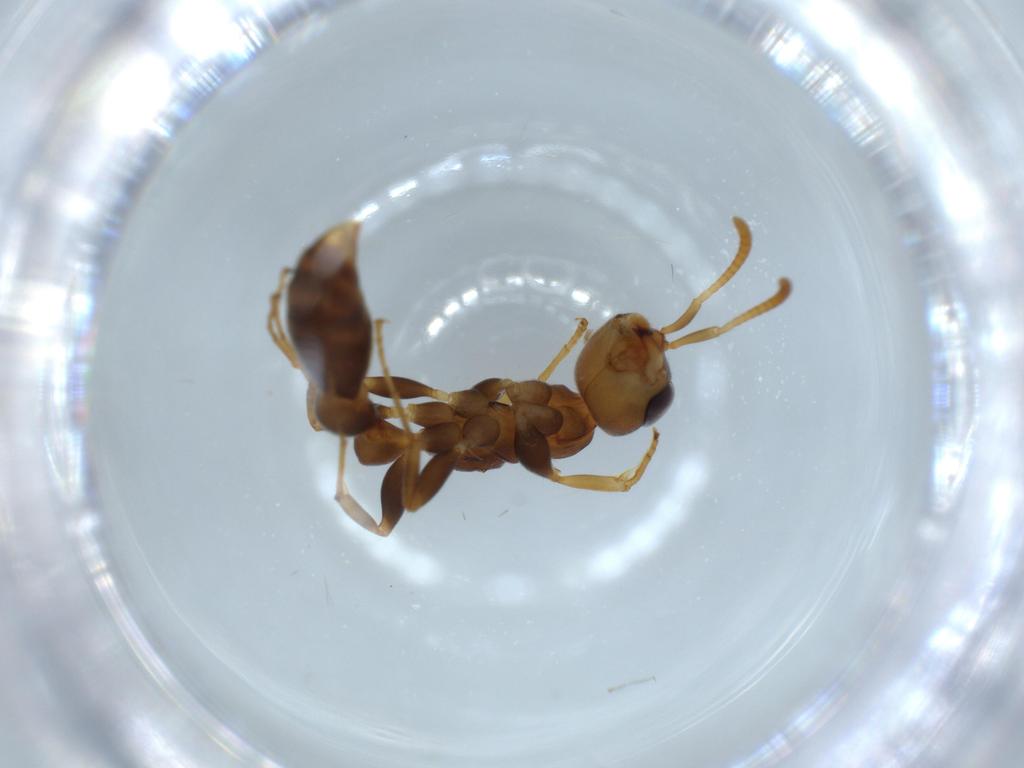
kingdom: Animalia
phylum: Arthropoda
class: Insecta
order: Hymenoptera
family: Formicidae
